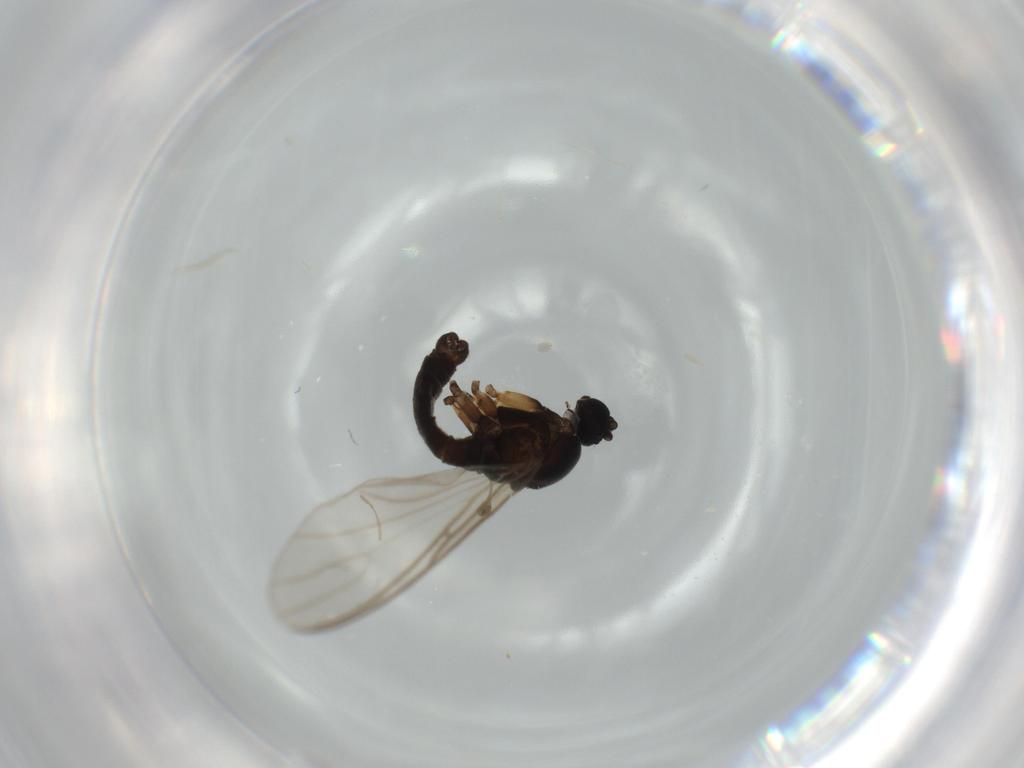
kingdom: Animalia
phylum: Arthropoda
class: Insecta
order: Diptera
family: Sciaridae
